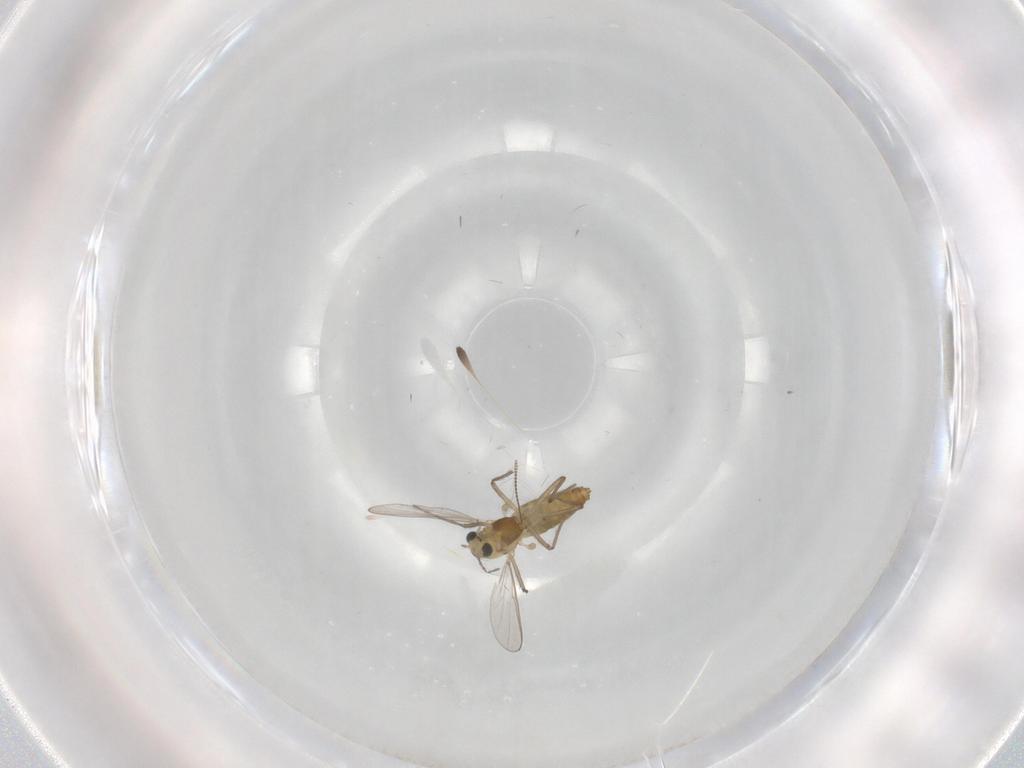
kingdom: Animalia
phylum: Arthropoda
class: Insecta
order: Diptera
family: Chironomidae
